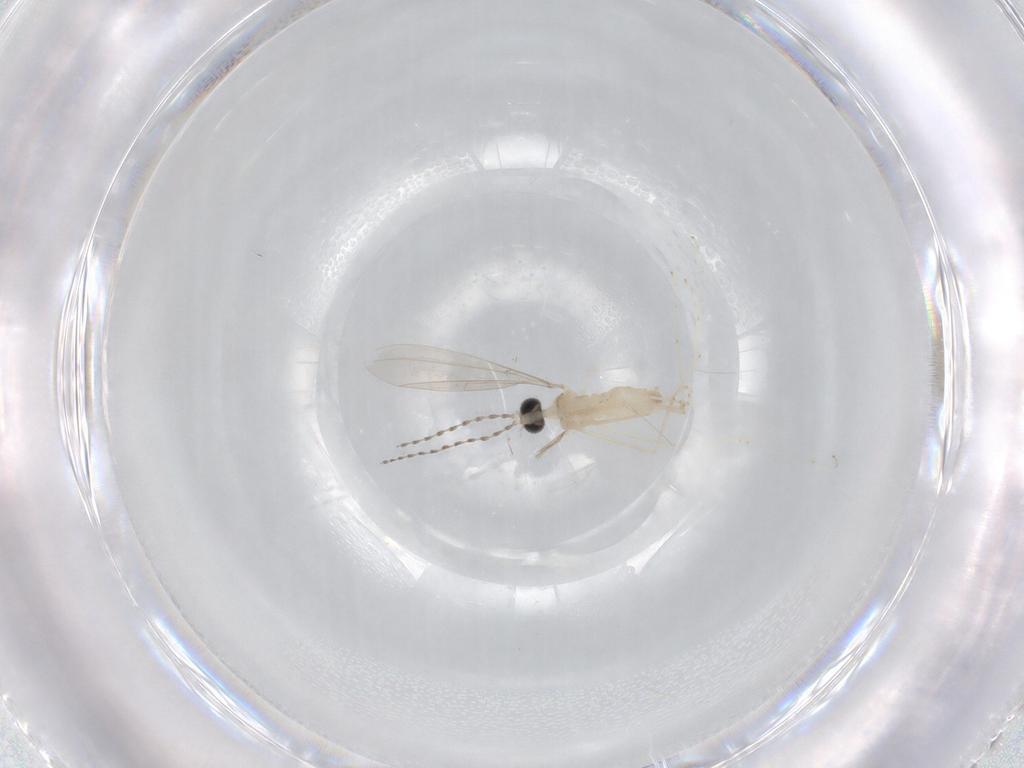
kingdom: Animalia
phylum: Arthropoda
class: Insecta
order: Diptera
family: Cecidomyiidae
